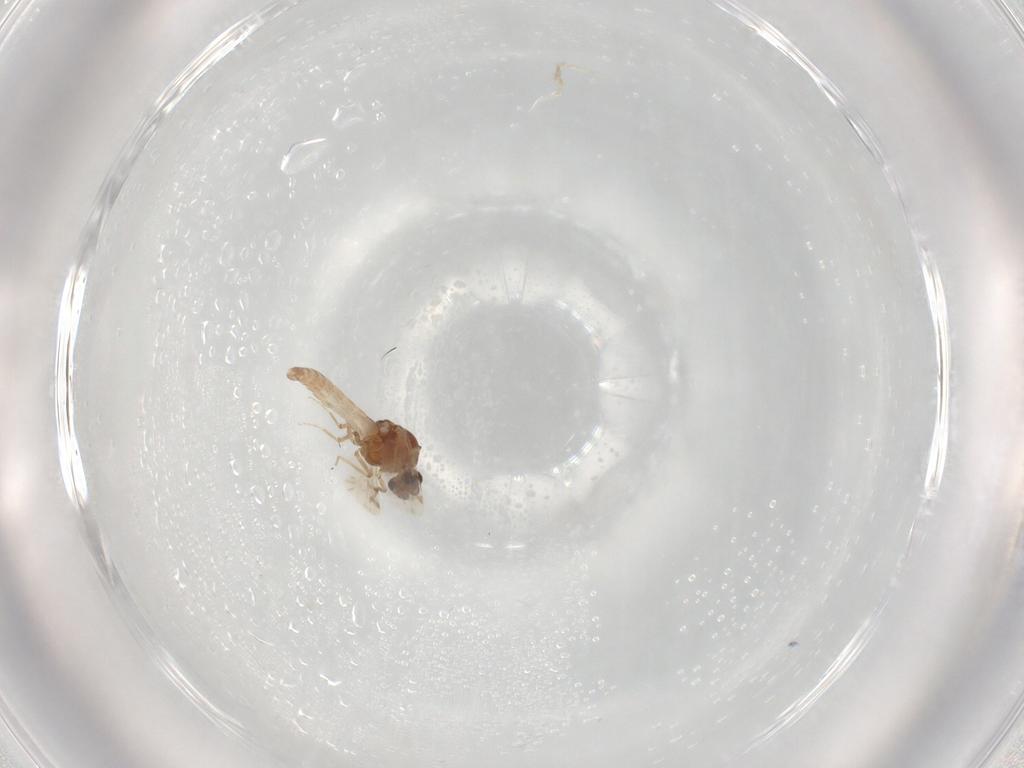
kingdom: Animalia
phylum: Arthropoda
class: Insecta
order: Diptera
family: Ceratopogonidae
